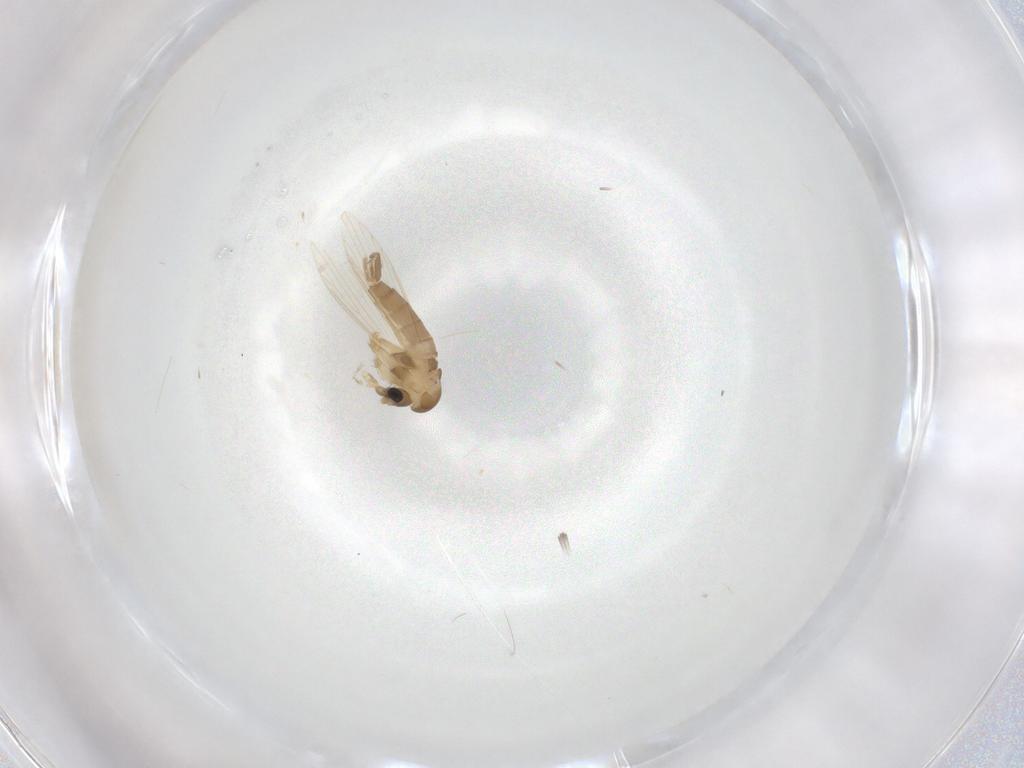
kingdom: Animalia
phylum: Arthropoda
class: Insecta
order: Diptera
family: Psychodidae
